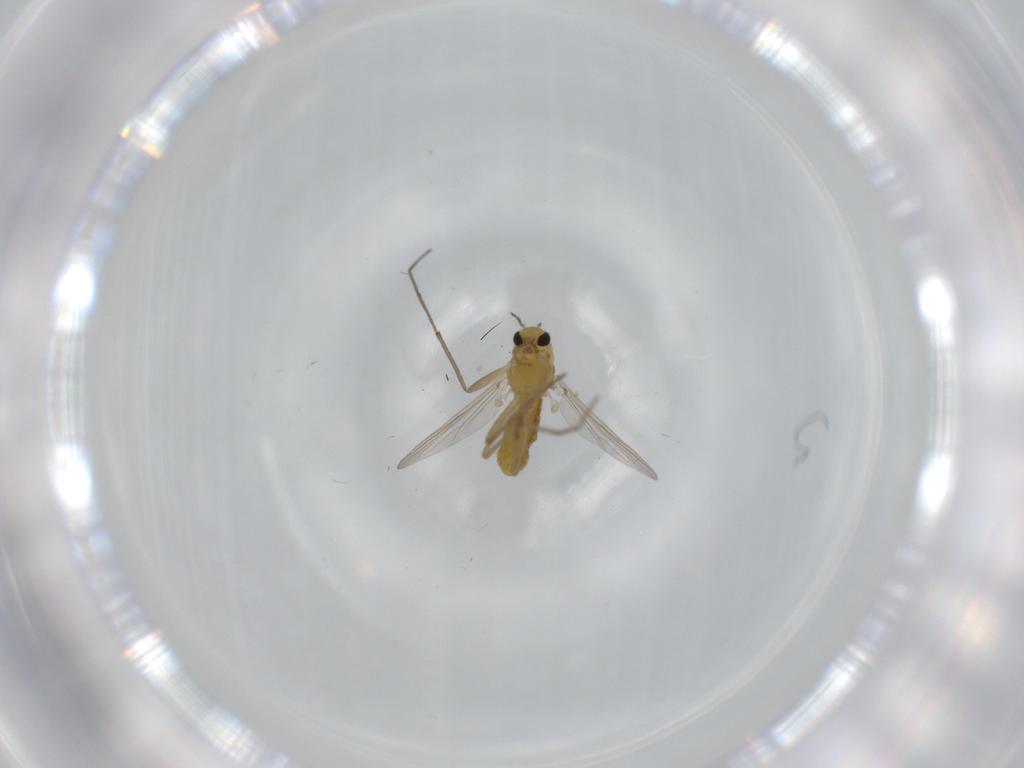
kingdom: Animalia
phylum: Arthropoda
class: Insecta
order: Diptera
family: Chironomidae
